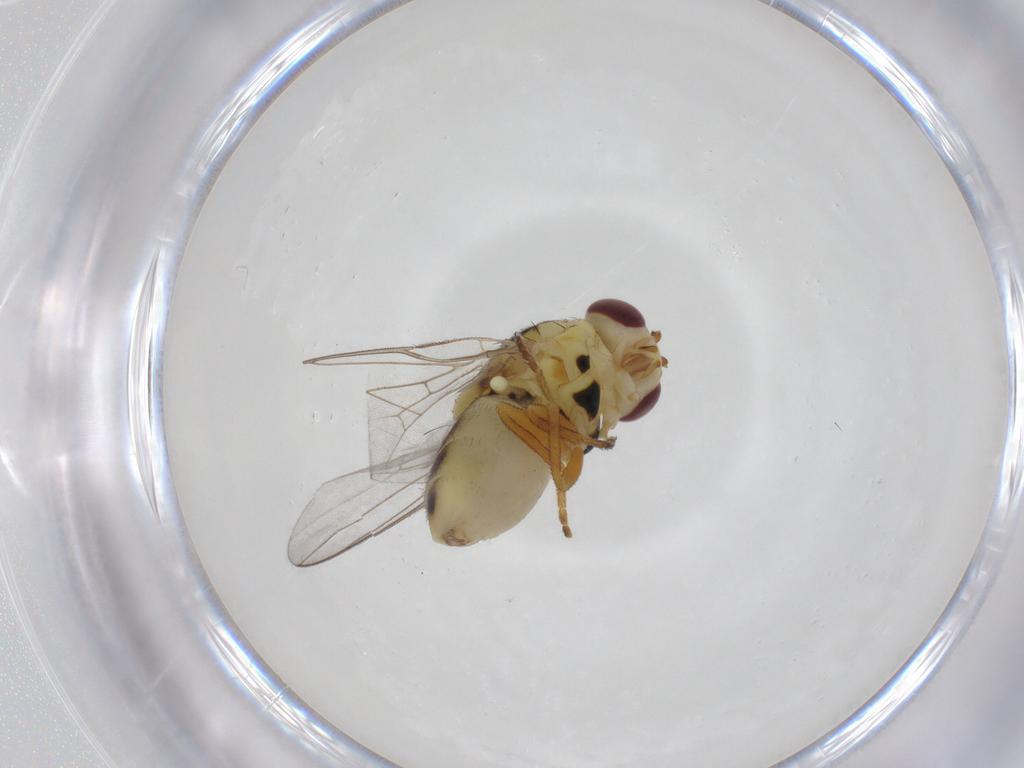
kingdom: Animalia
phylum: Arthropoda
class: Insecta
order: Diptera
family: Chloropidae
